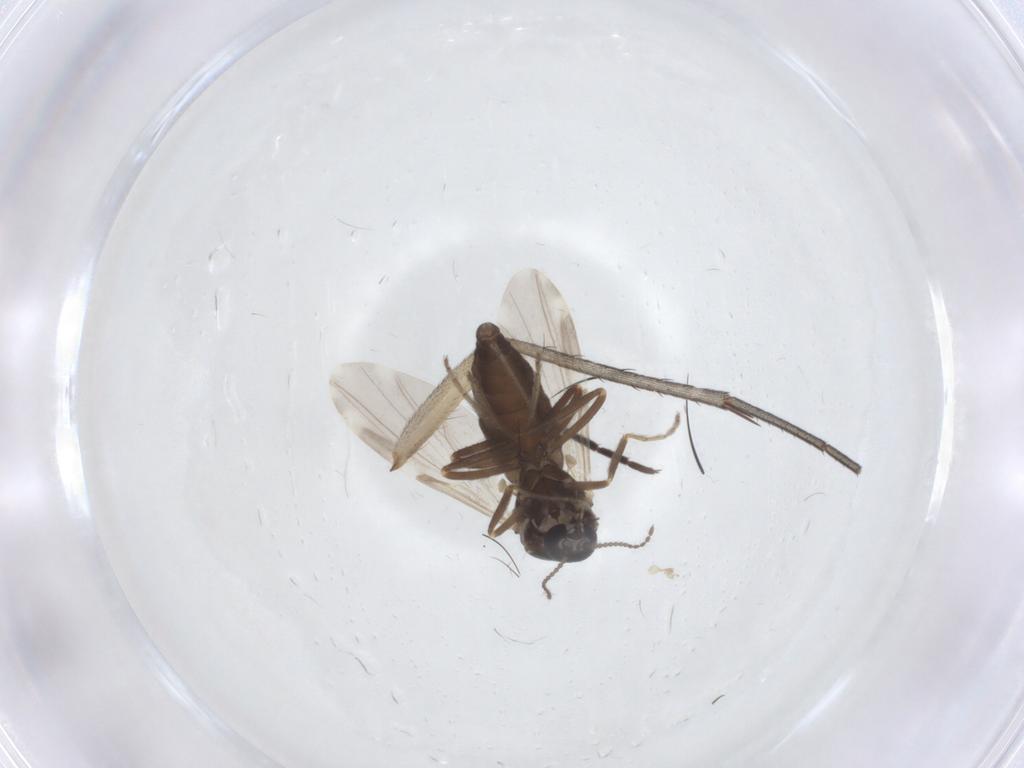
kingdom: Animalia
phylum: Arthropoda
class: Insecta
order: Diptera
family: Ceratopogonidae
